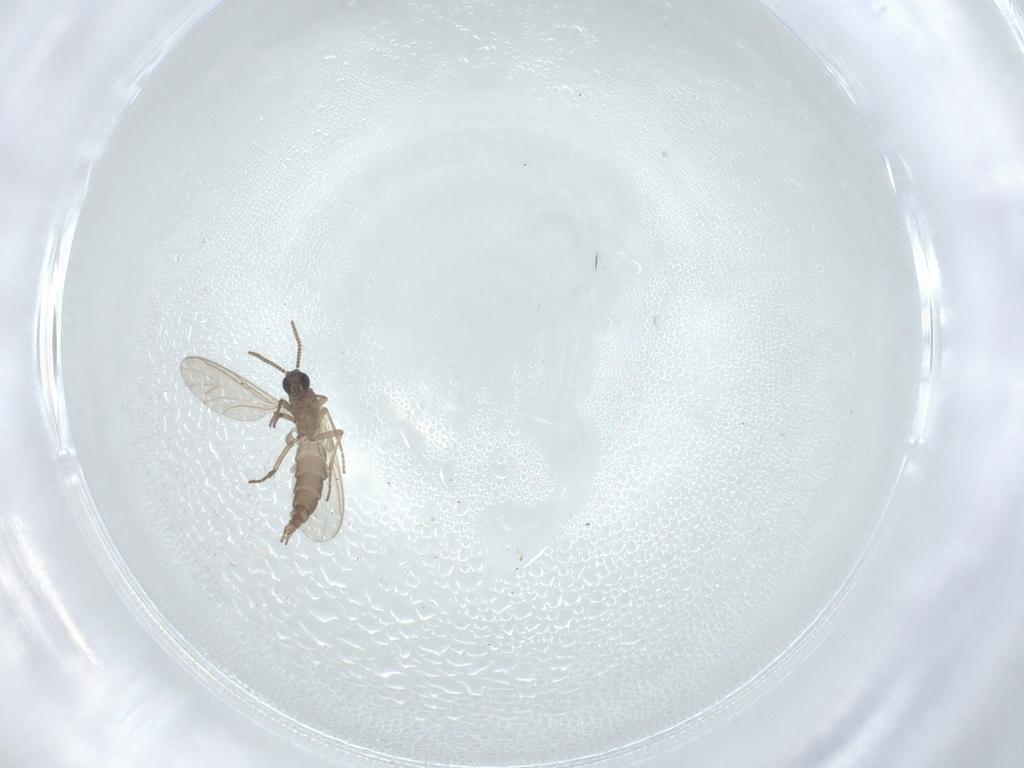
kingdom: Animalia
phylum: Arthropoda
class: Insecta
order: Diptera
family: Sciaridae
